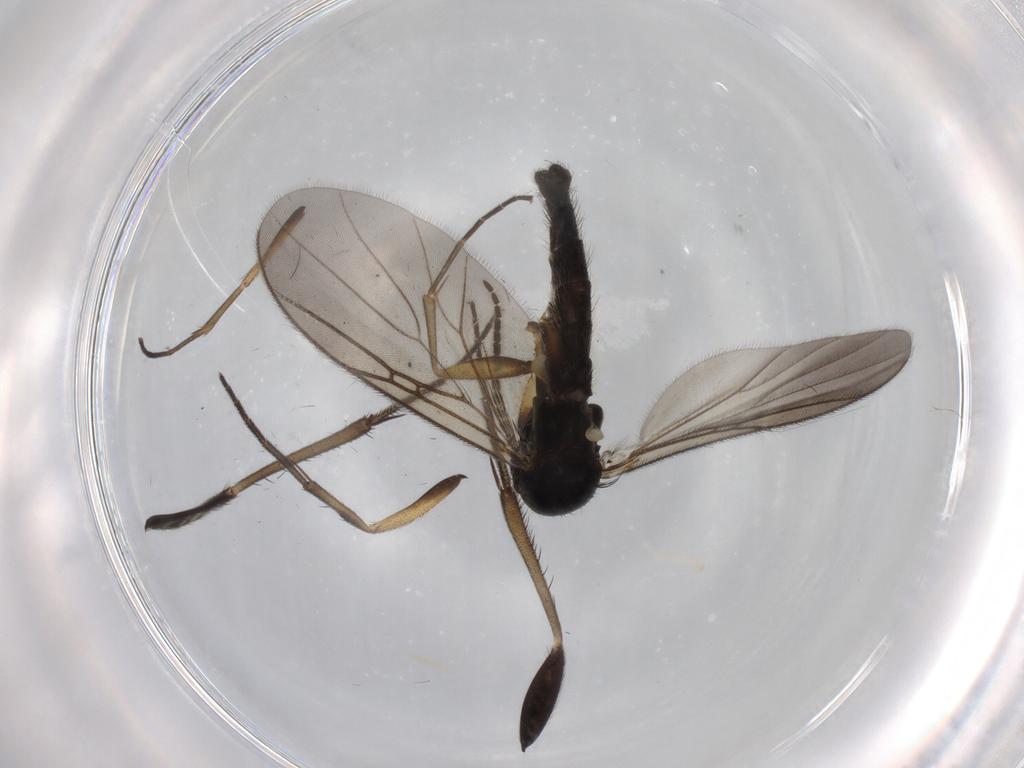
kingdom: Animalia
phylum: Arthropoda
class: Insecta
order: Diptera
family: Mycetophilidae
